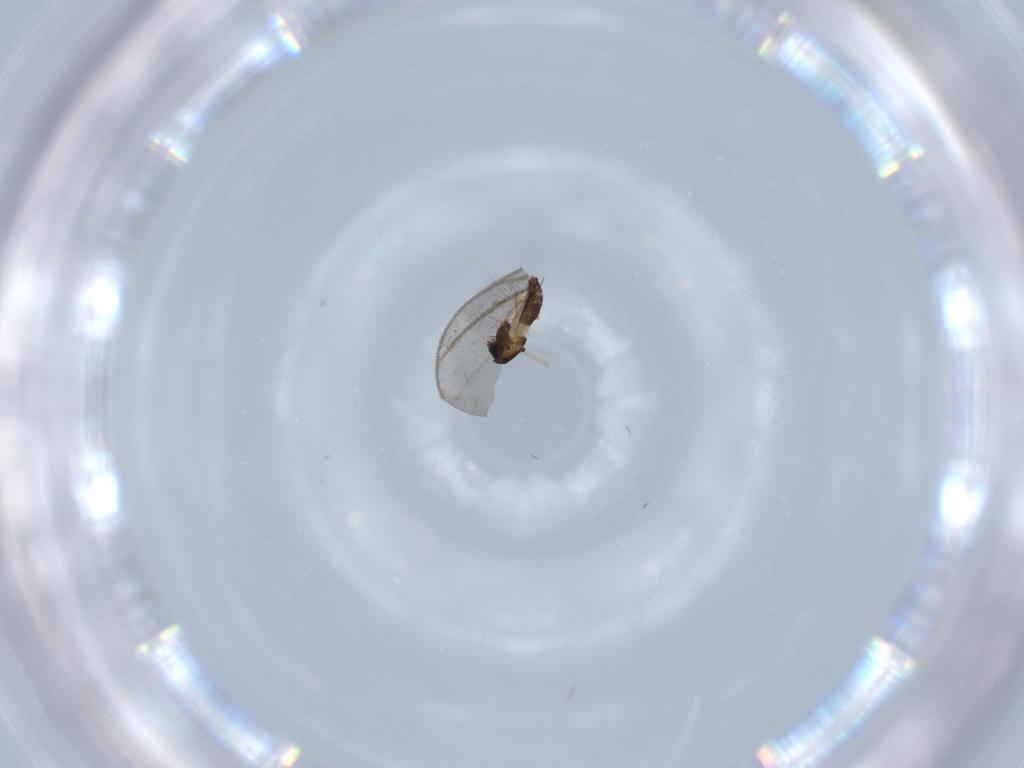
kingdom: Animalia
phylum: Arthropoda
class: Insecta
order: Diptera
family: Chironomidae
